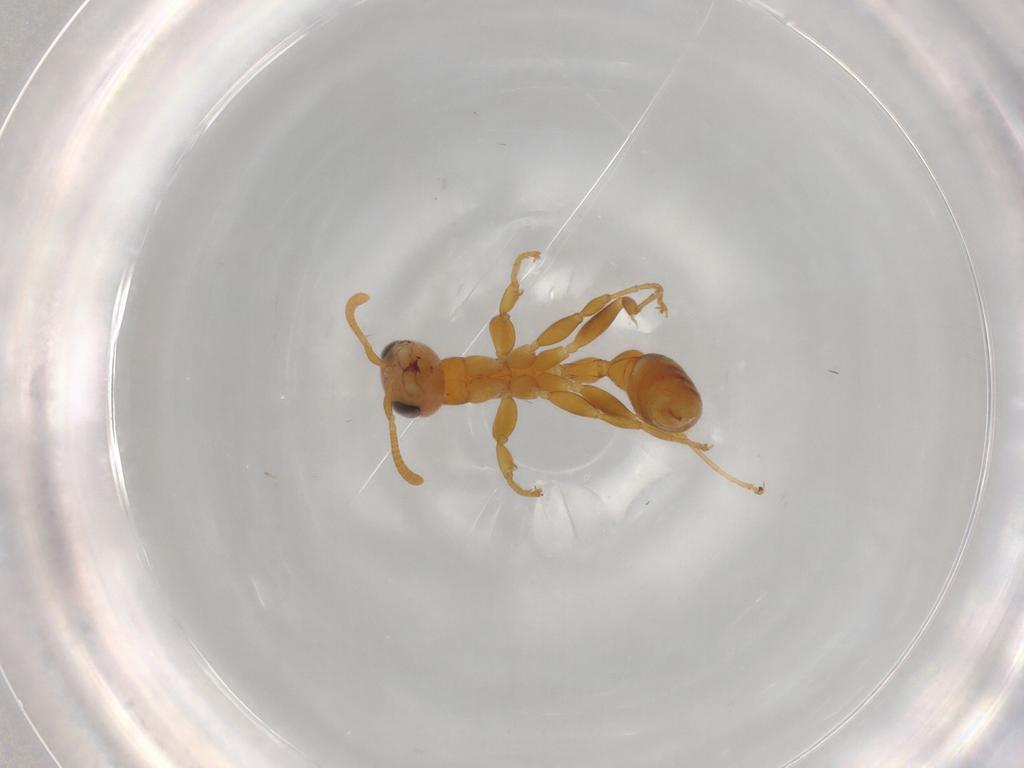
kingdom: Animalia
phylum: Arthropoda
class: Insecta
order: Hymenoptera
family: Formicidae
